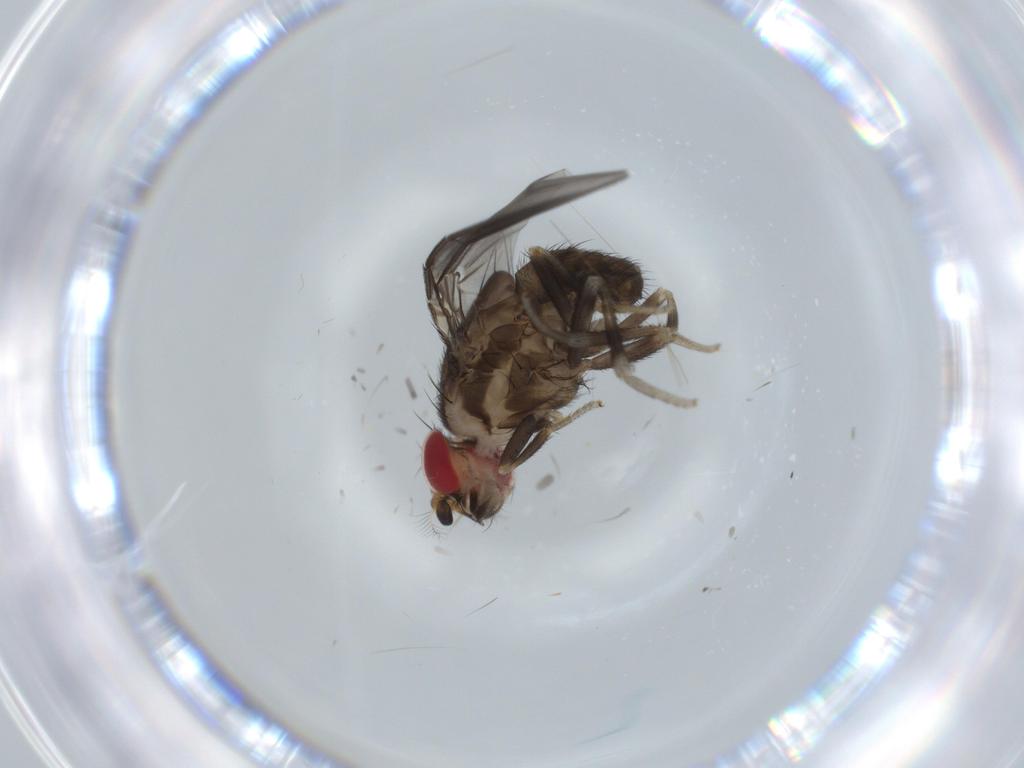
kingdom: Animalia
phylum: Arthropoda
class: Insecta
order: Diptera
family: Drosophilidae
